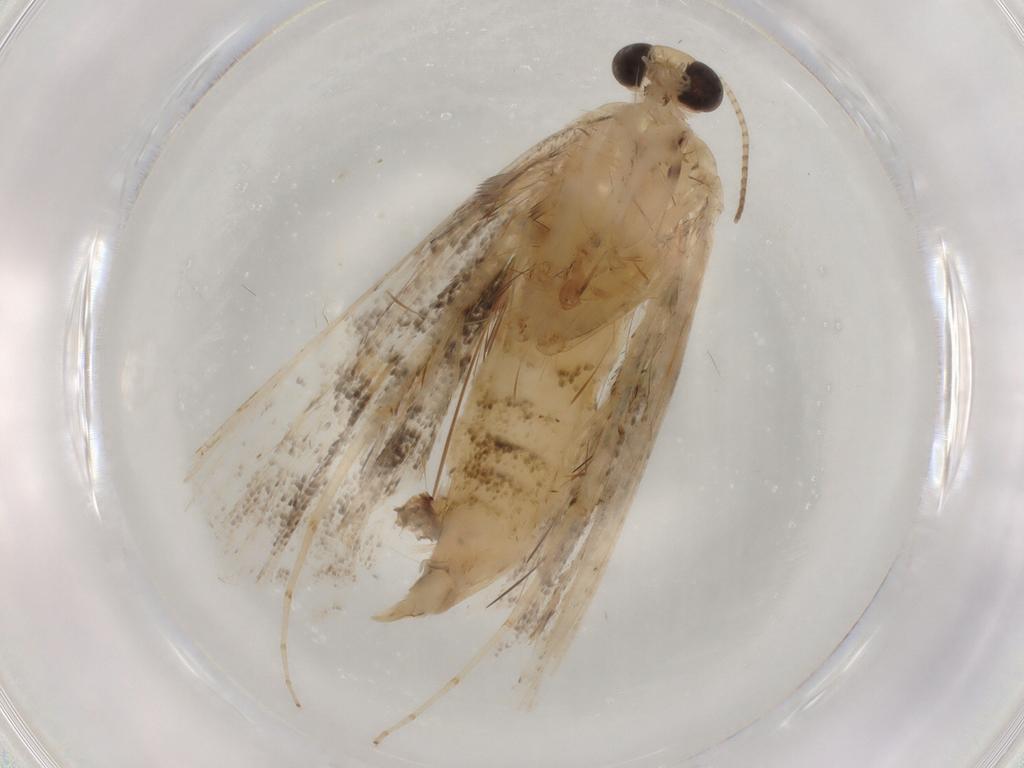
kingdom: Animalia
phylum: Arthropoda
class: Insecta
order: Lepidoptera
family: Crambidae
